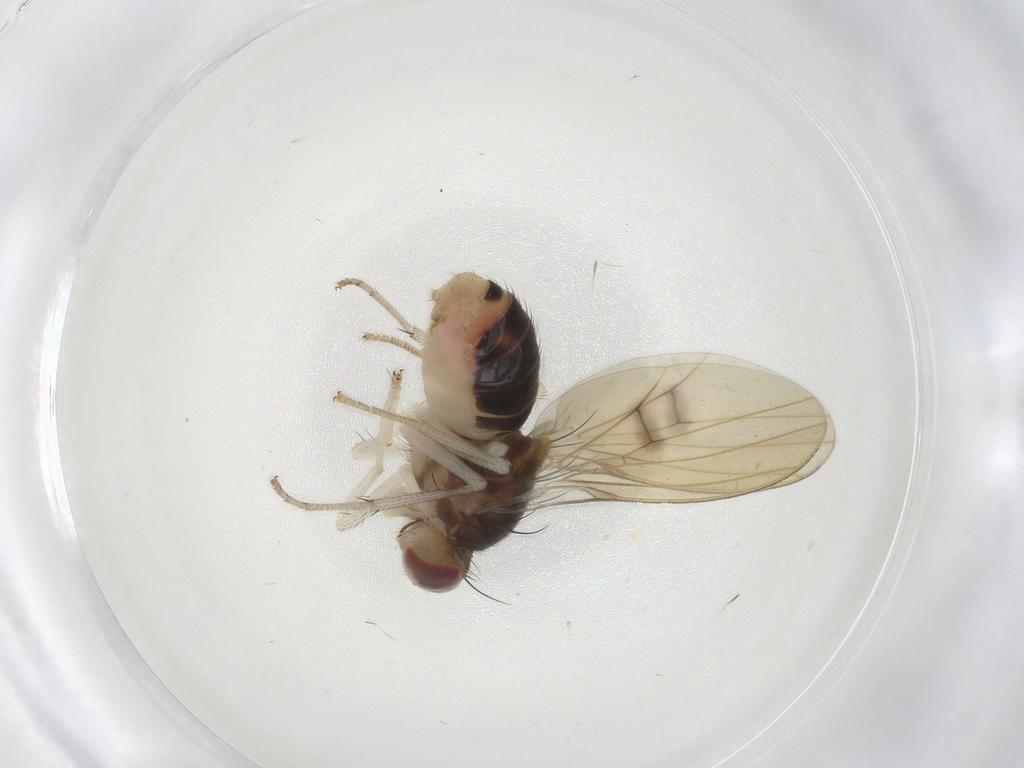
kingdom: Animalia
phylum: Arthropoda
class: Insecta
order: Diptera
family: Lauxaniidae
